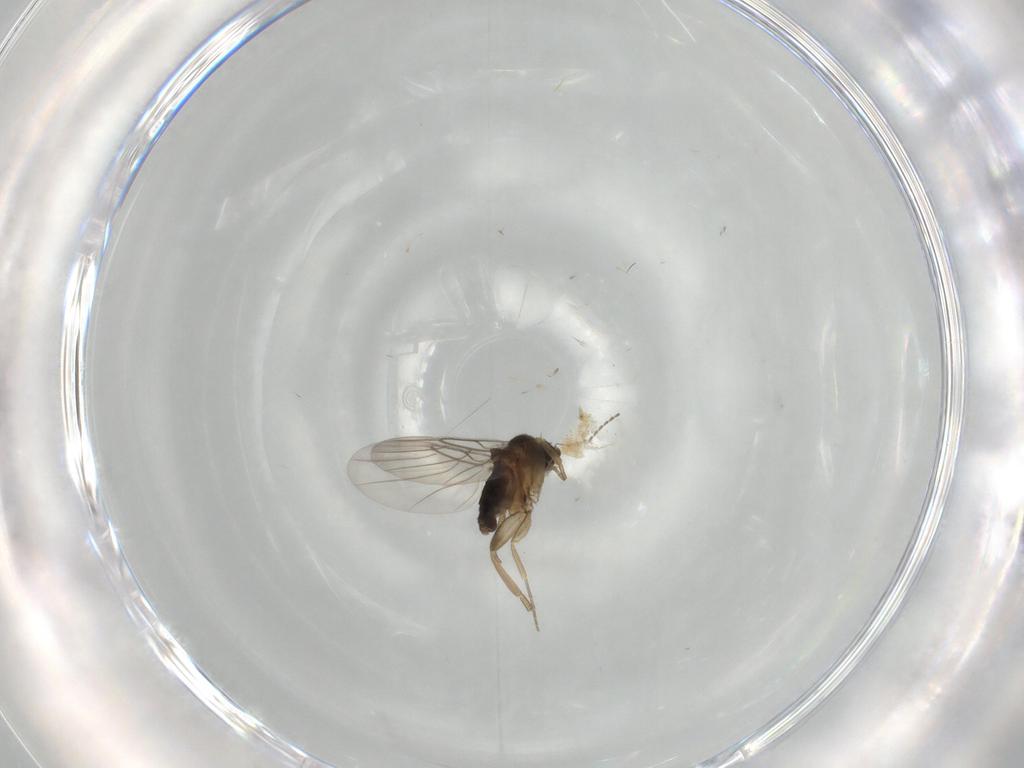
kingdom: Animalia
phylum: Arthropoda
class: Insecta
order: Diptera
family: Phoridae
